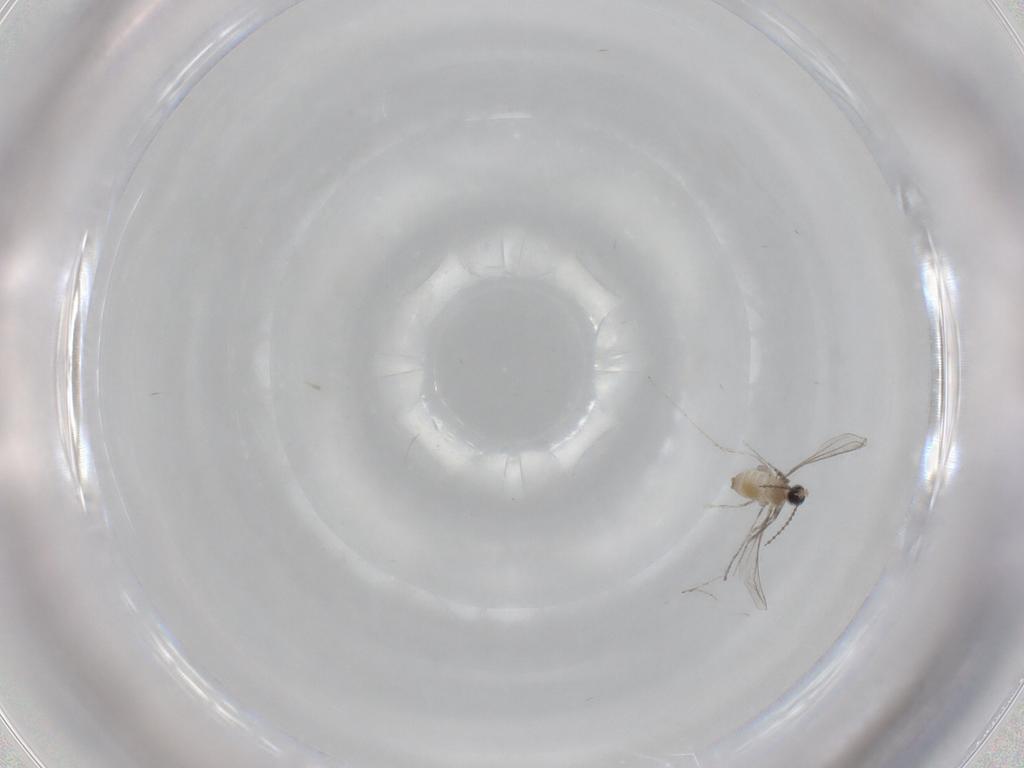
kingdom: Animalia
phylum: Arthropoda
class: Insecta
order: Diptera
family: Cecidomyiidae
